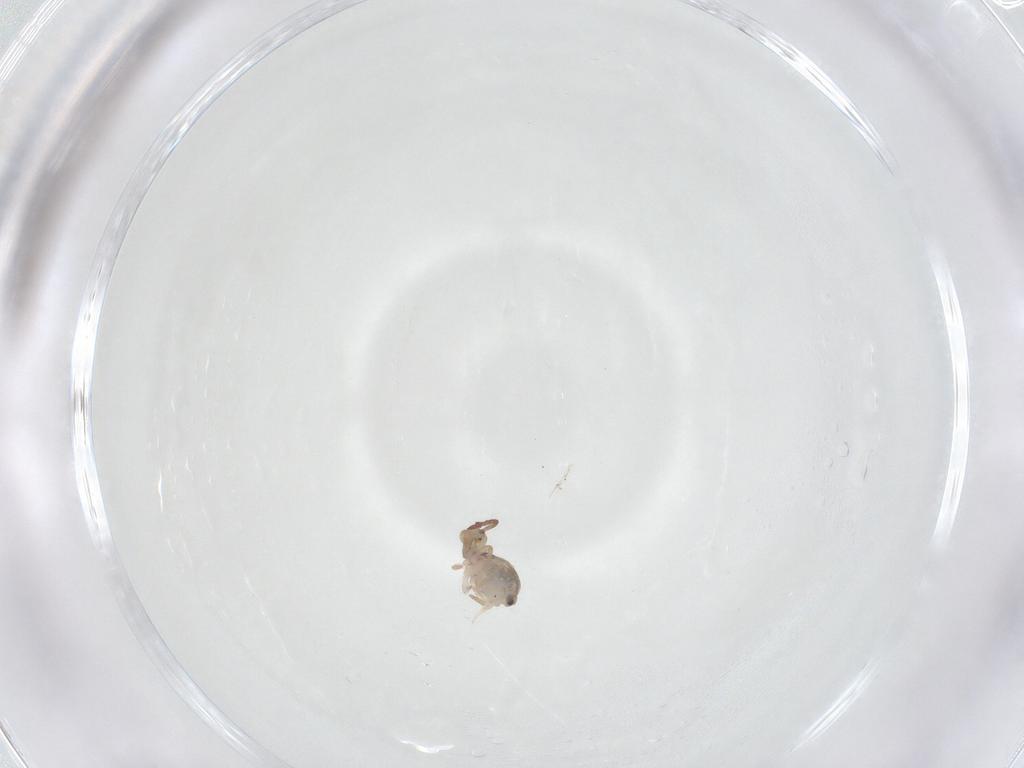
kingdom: Animalia
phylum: Arthropoda
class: Collembola
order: Symphypleona
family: Dicyrtomidae
